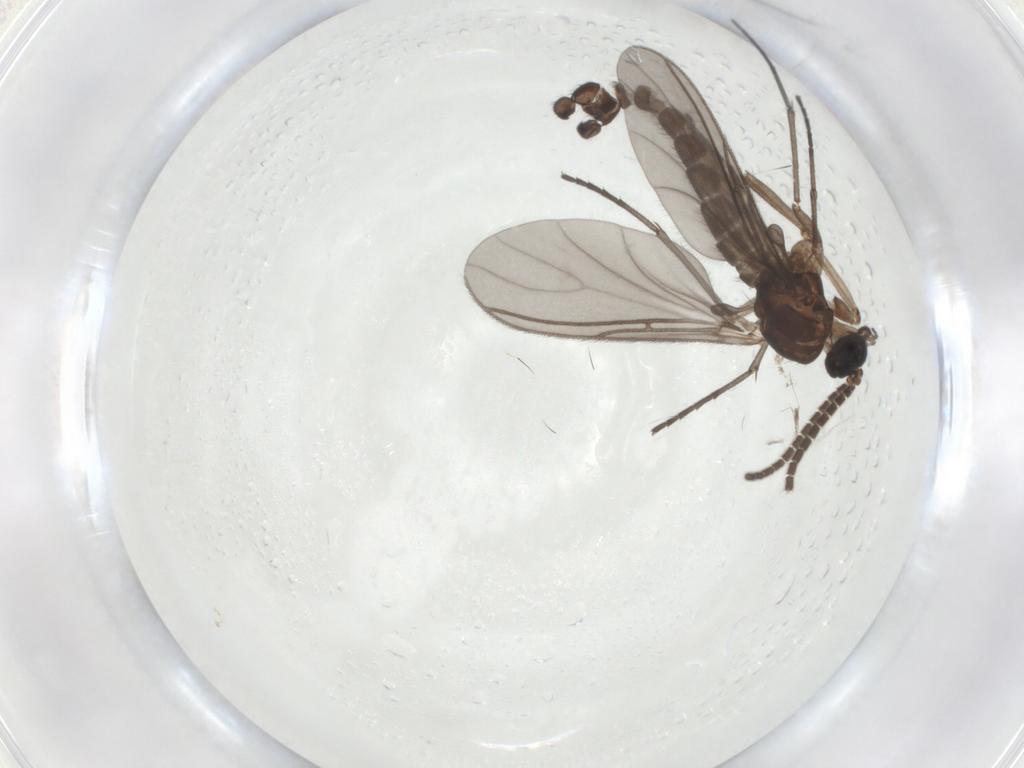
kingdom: Animalia
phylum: Arthropoda
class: Insecta
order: Diptera
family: Sciaridae
